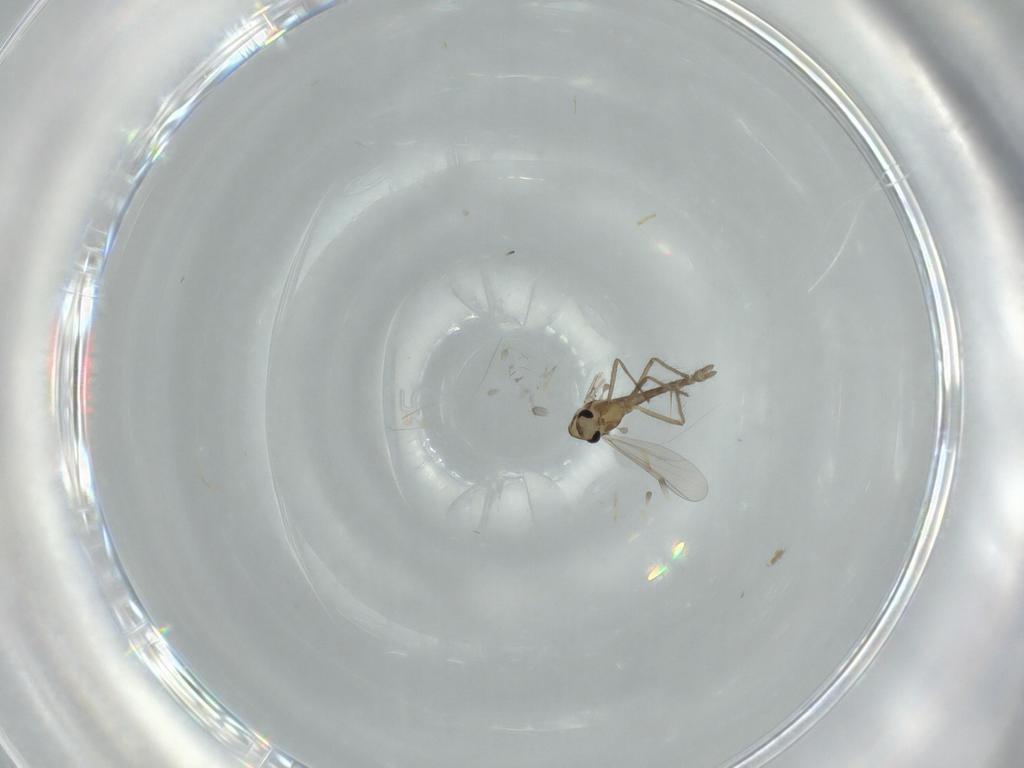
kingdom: Animalia
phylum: Arthropoda
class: Insecta
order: Diptera
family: Chironomidae
